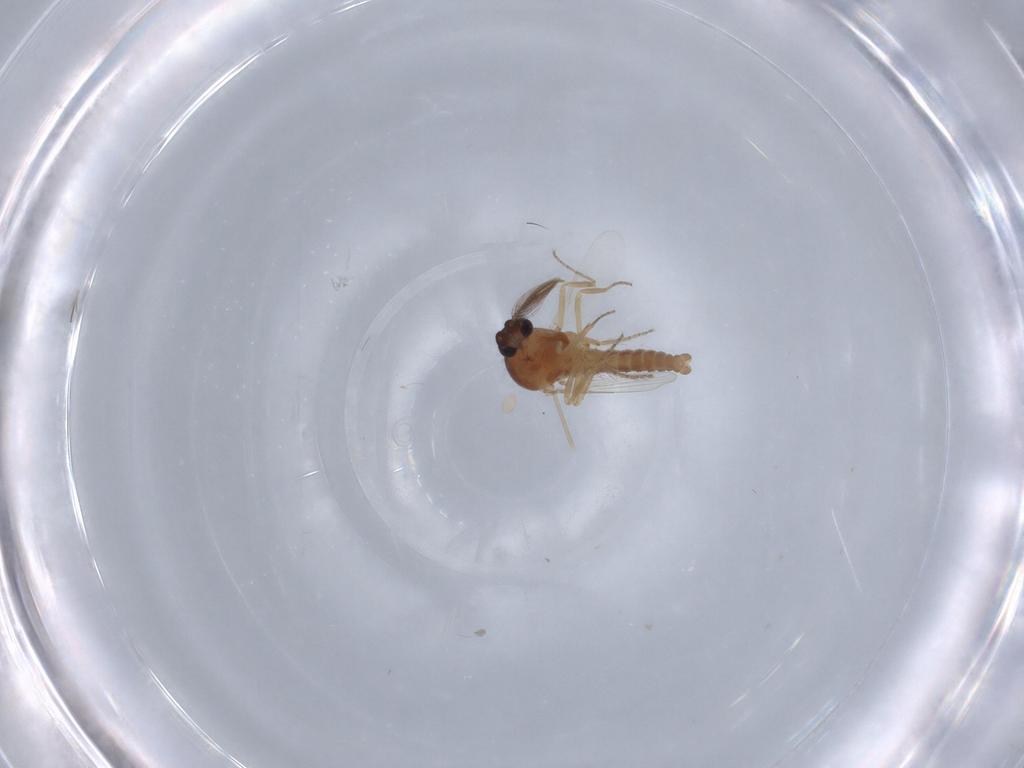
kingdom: Animalia
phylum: Arthropoda
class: Insecta
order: Diptera
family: Ceratopogonidae
